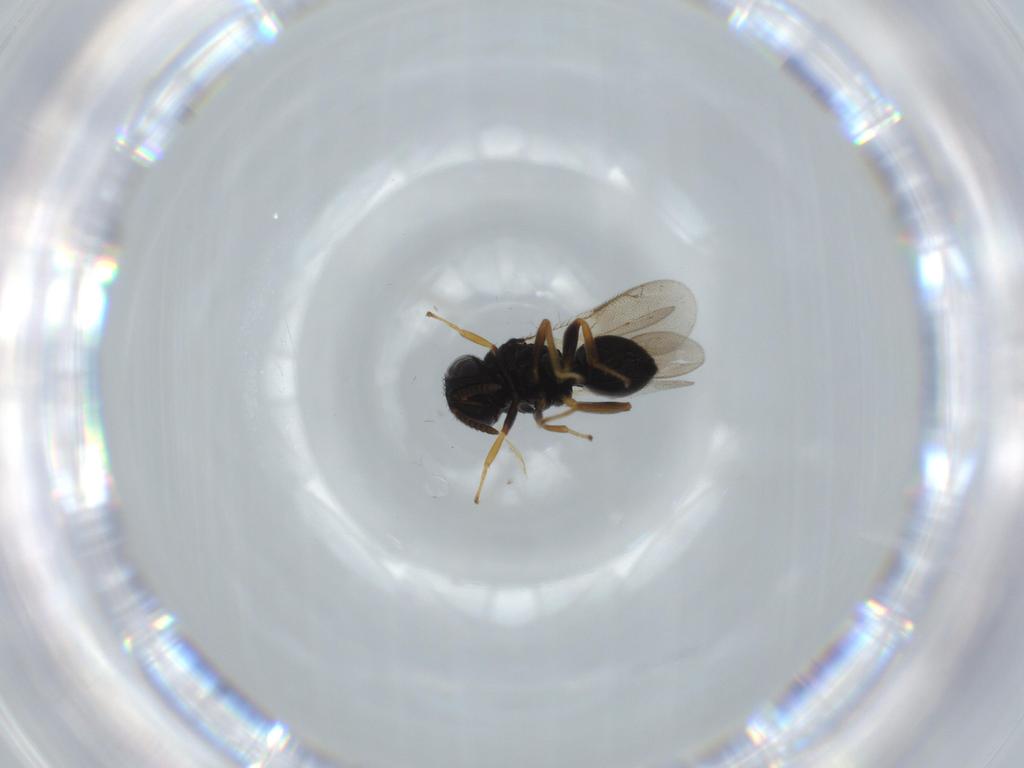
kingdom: Animalia
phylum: Arthropoda
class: Insecta
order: Hymenoptera
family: Pteromalidae
